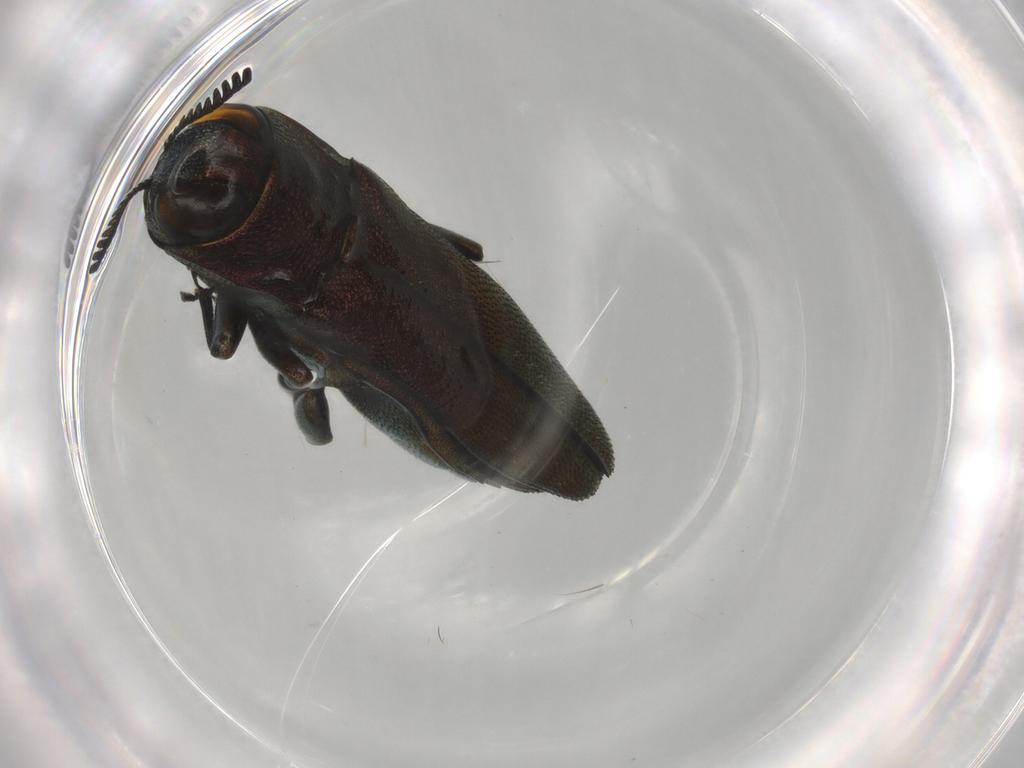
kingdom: Animalia
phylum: Arthropoda
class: Insecta
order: Coleoptera
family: Buprestidae
